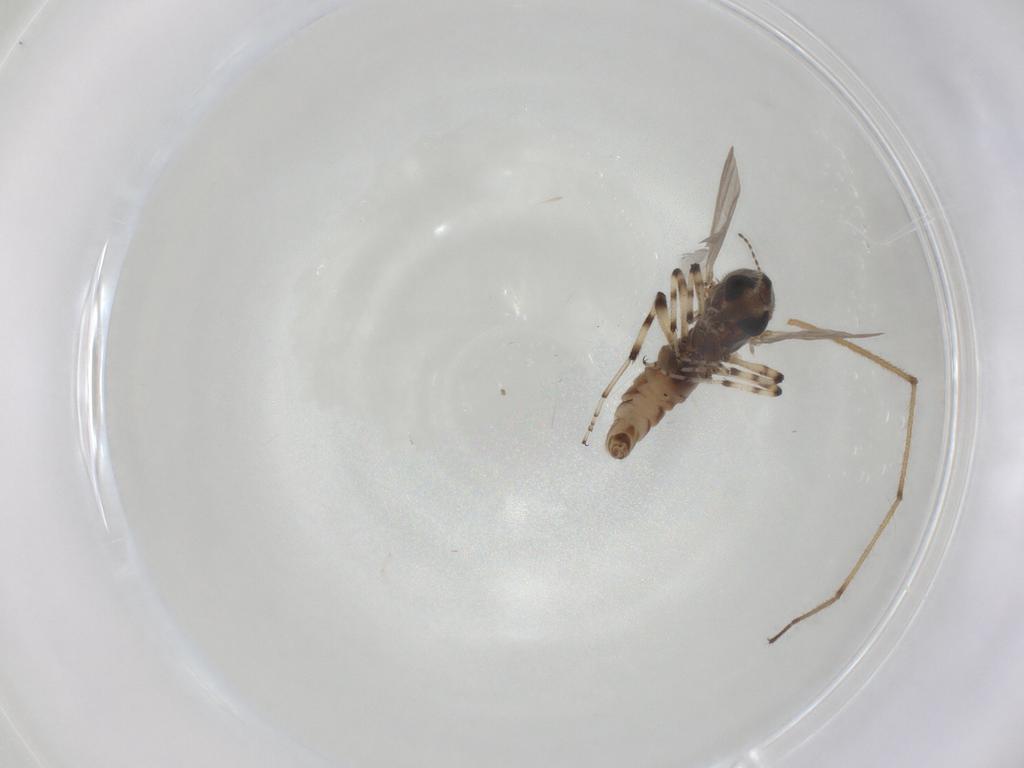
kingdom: Animalia
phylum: Arthropoda
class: Insecta
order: Diptera
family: Ceratopogonidae
